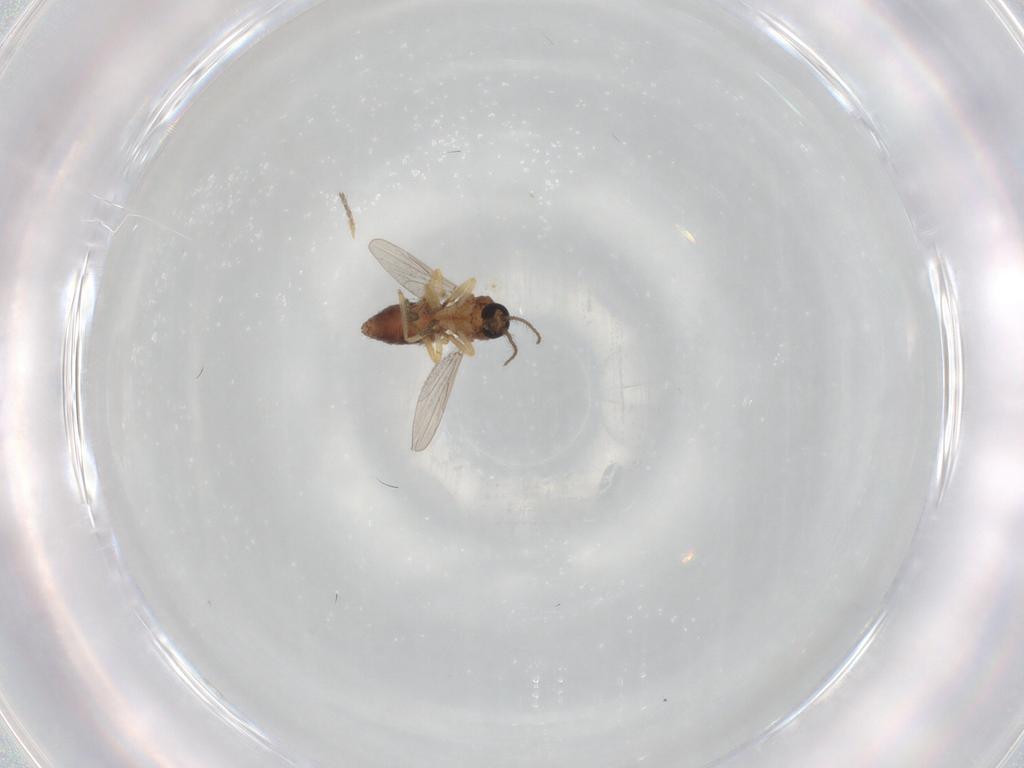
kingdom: Animalia
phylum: Arthropoda
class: Insecta
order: Diptera
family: Ceratopogonidae
